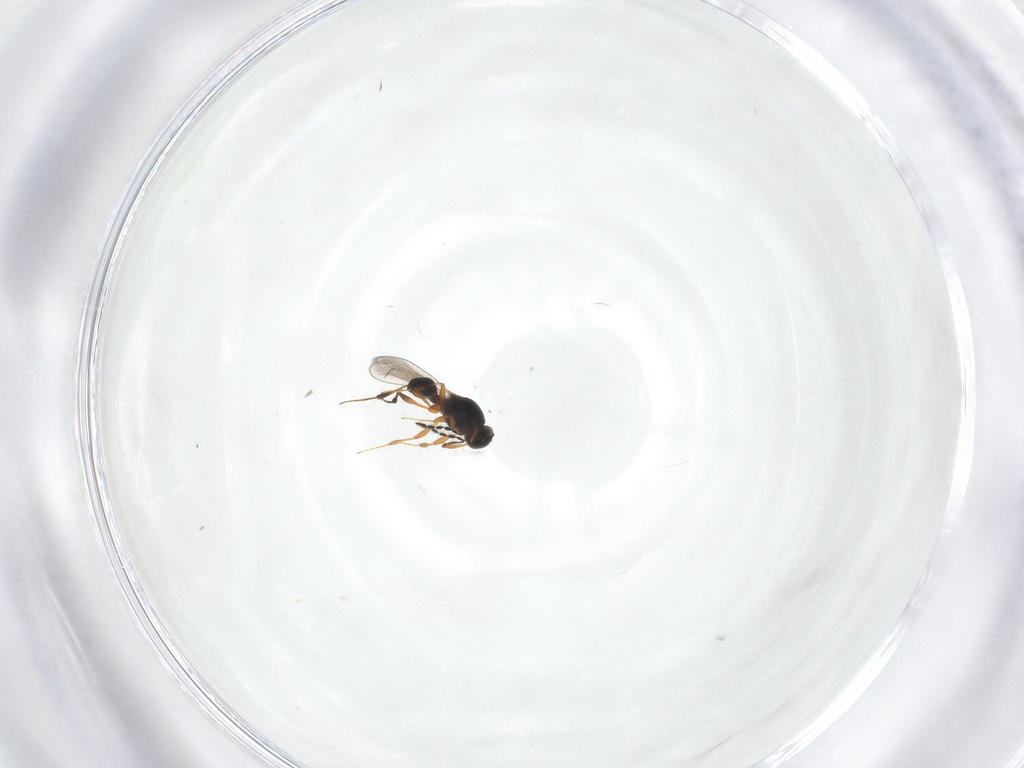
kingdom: Animalia
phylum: Arthropoda
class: Insecta
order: Hymenoptera
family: Platygastridae
